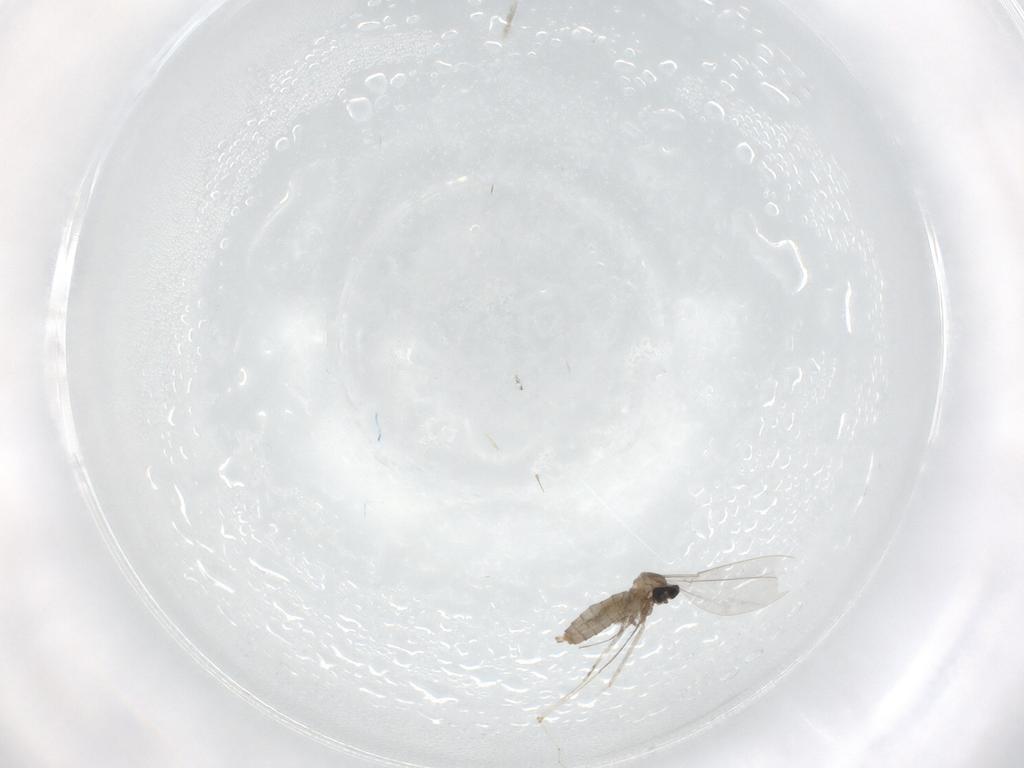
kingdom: Animalia
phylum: Arthropoda
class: Insecta
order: Diptera
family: Cecidomyiidae
